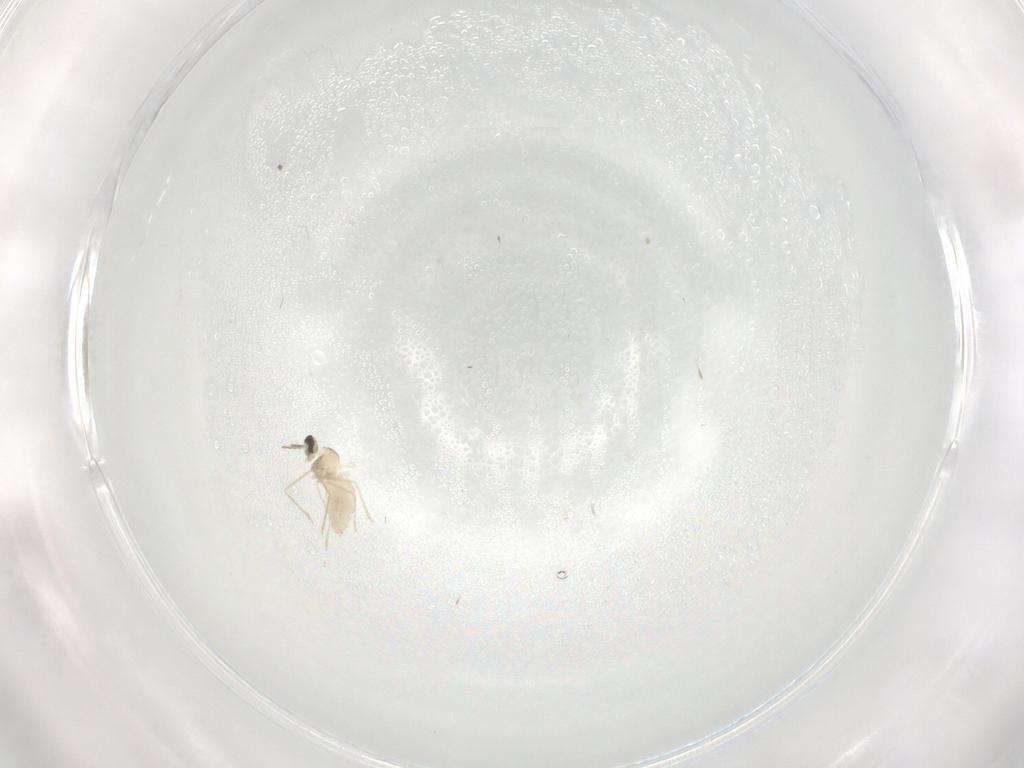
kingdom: Animalia
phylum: Arthropoda
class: Insecta
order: Diptera
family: Cecidomyiidae
